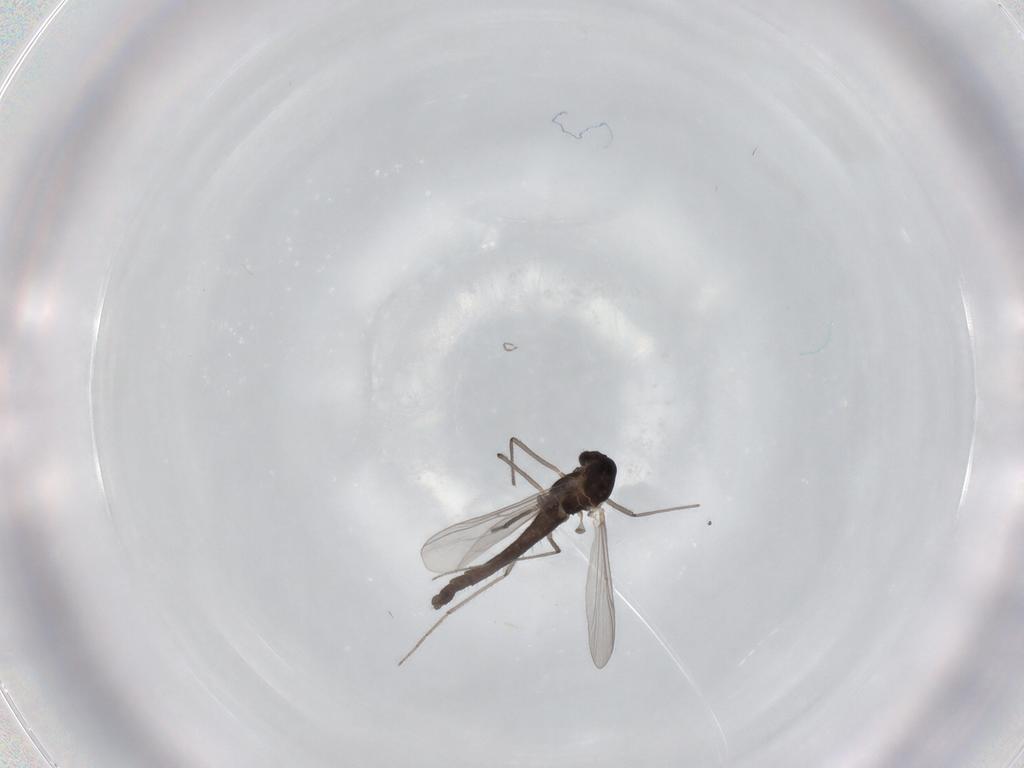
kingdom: Animalia
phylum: Arthropoda
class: Insecta
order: Diptera
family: Chironomidae
